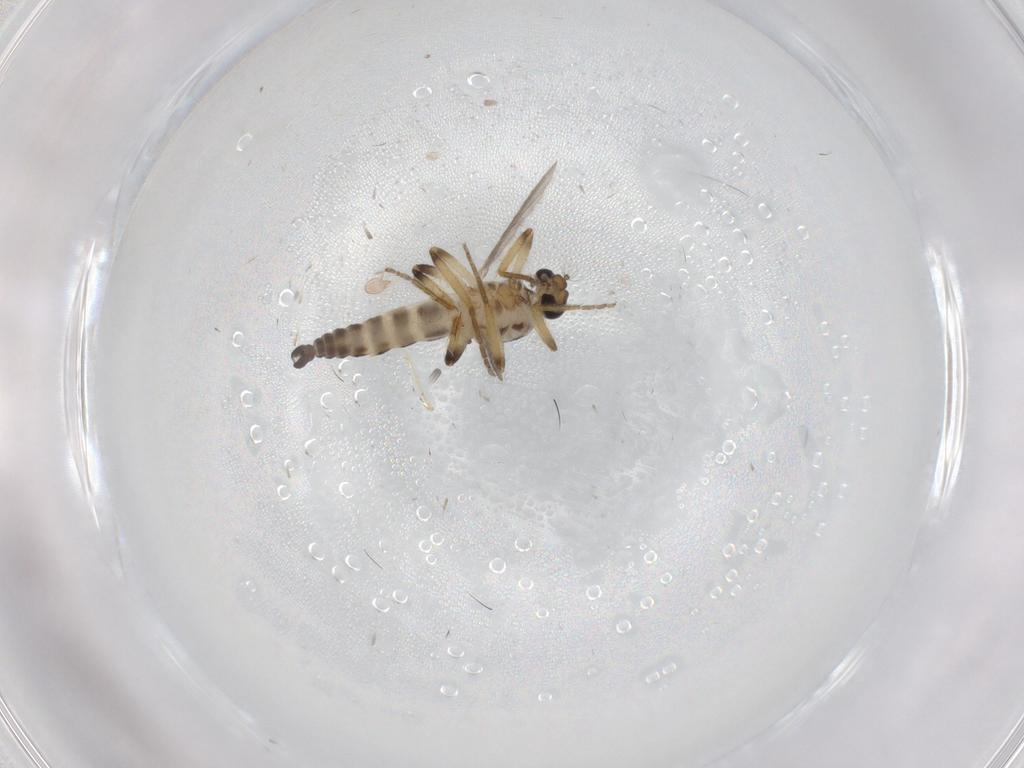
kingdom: Animalia
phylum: Arthropoda
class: Insecta
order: Diptera
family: Ceratopogonidae
